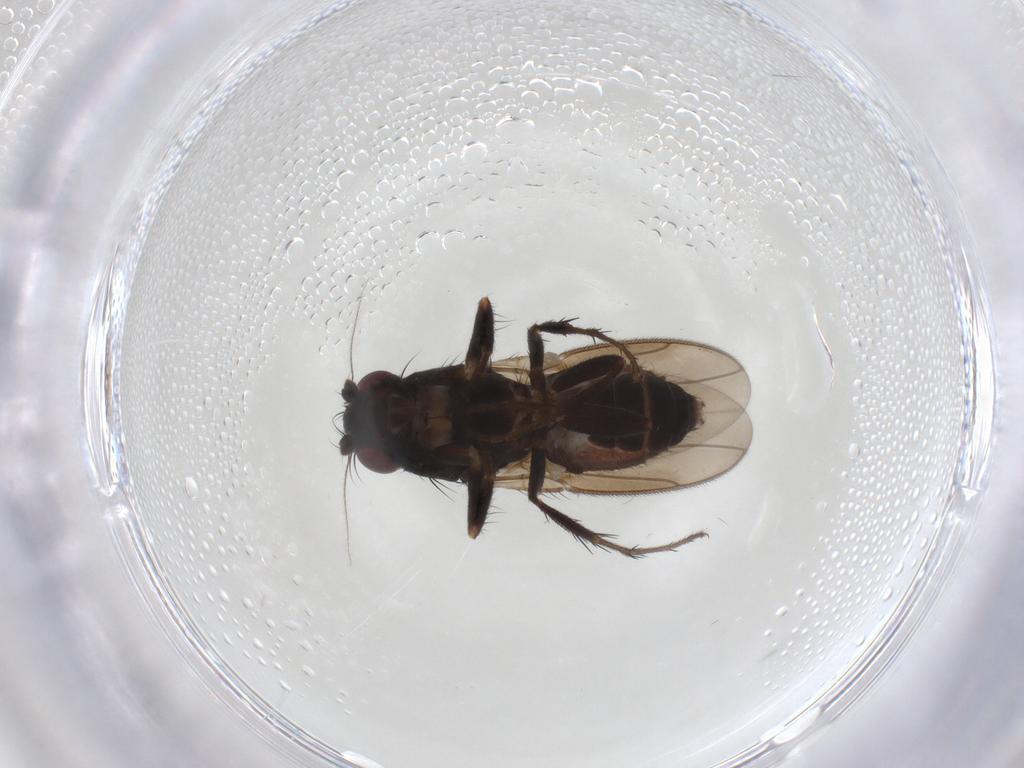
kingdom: Animalia
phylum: Arthropoda
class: Insecta
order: Diptera
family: Sphaeroceridae
